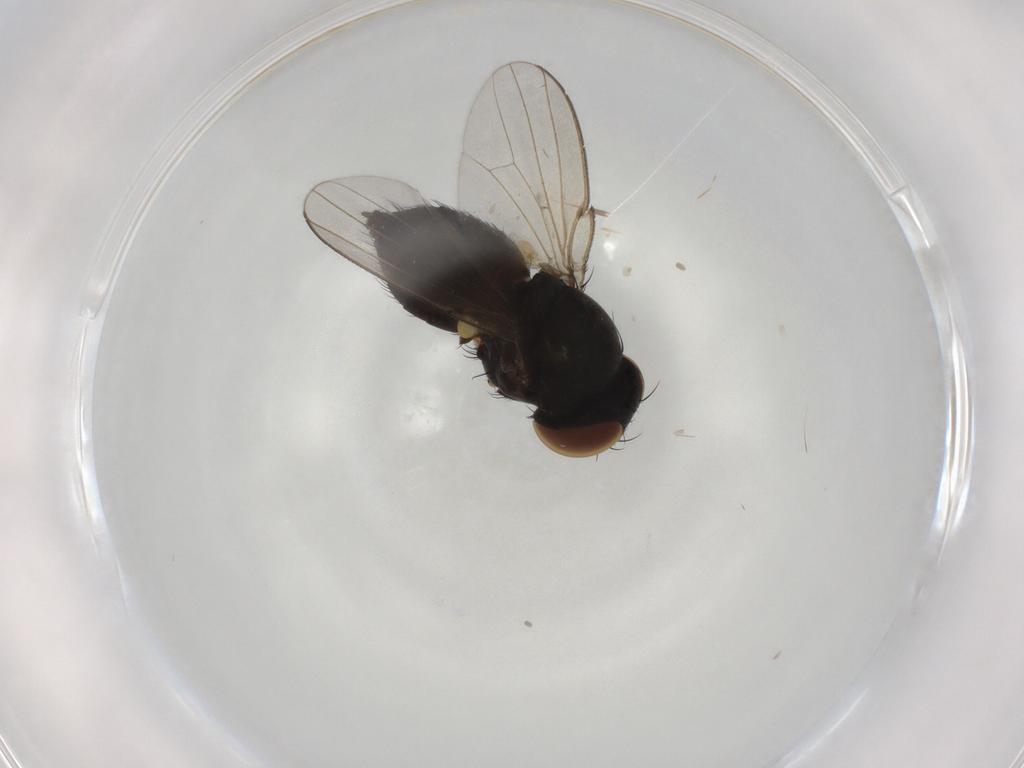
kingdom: Animalia
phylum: Arthropoda
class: Insecta
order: Diptera
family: Milichiidae
